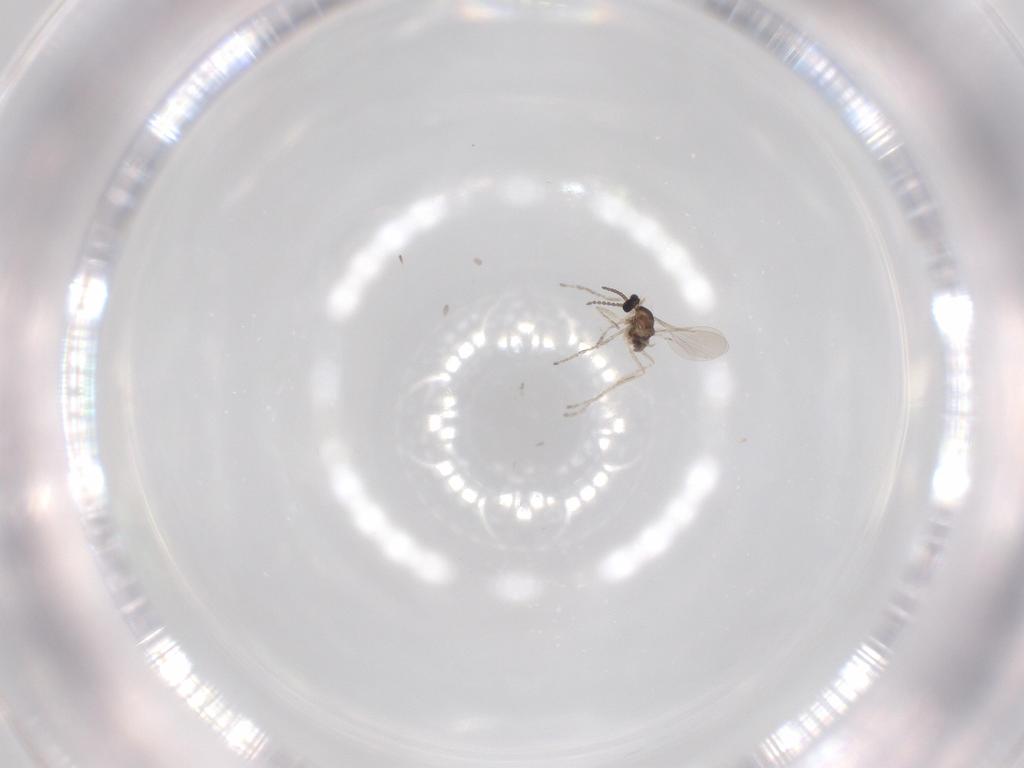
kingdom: Animalia
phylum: Arthropoda
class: Insecta
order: Diptera
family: Cecidomyiidae
